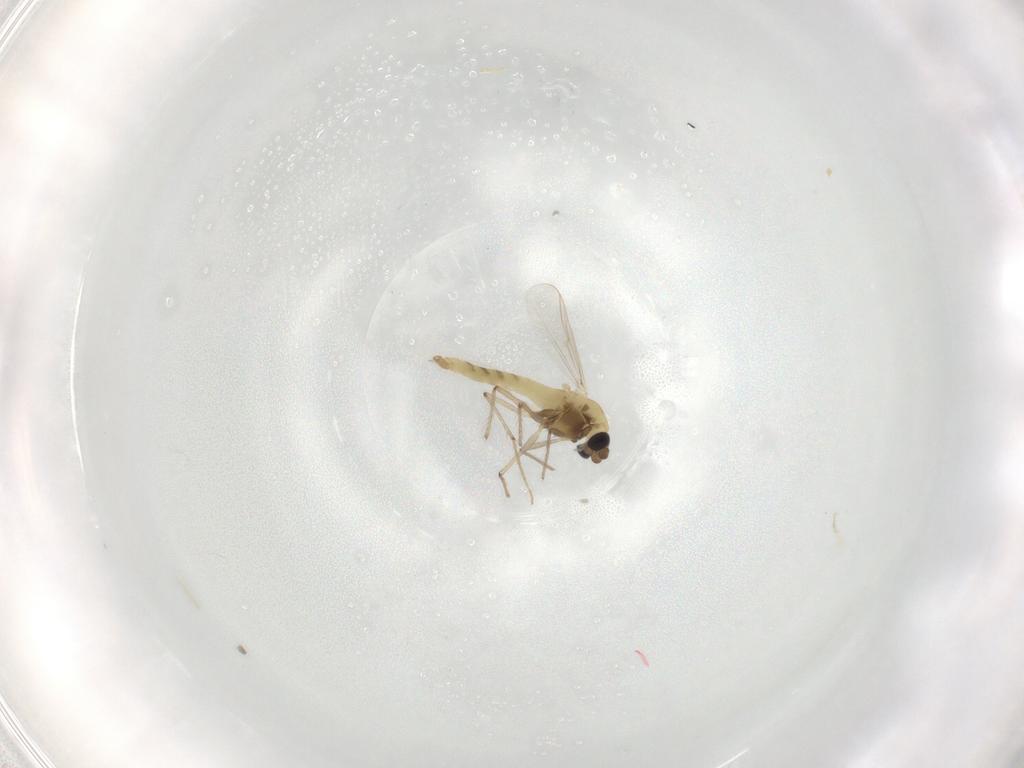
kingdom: Animalia
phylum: Arthropoda
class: Insecta
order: Diptera
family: Chironomidae
